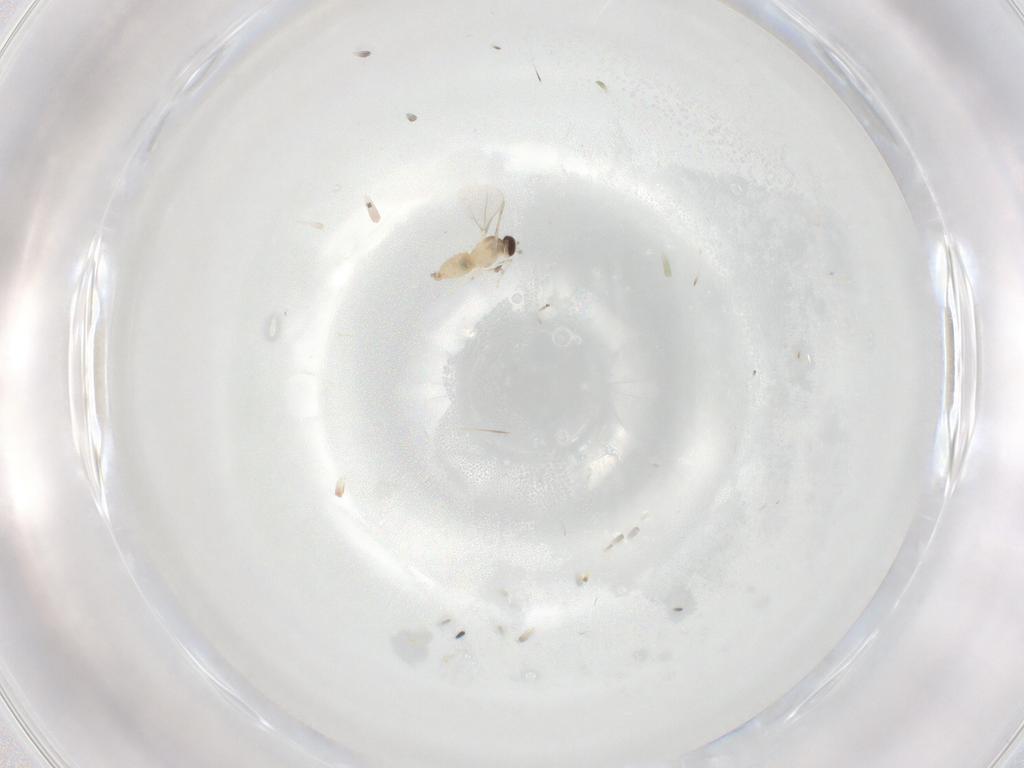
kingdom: Animalia
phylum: Arthropoda
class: Insecta
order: Diptera
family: Cecidomyiidae
